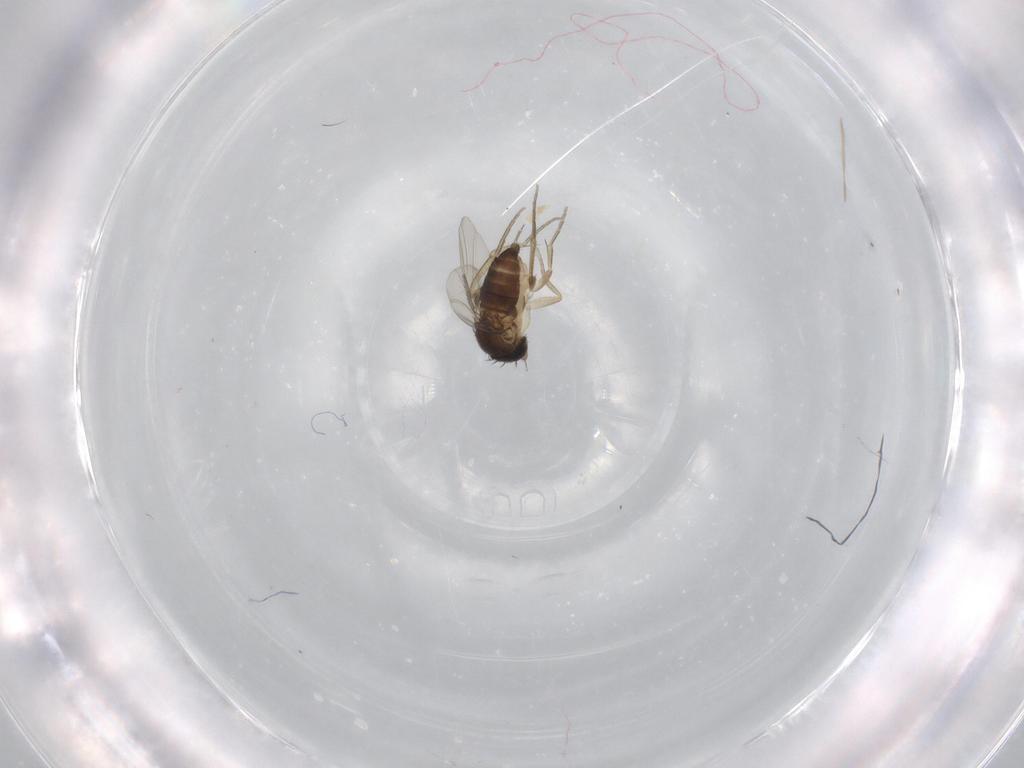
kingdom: Animalia
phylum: Arthropoda
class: Insecta
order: Diptera
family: Phoridae
